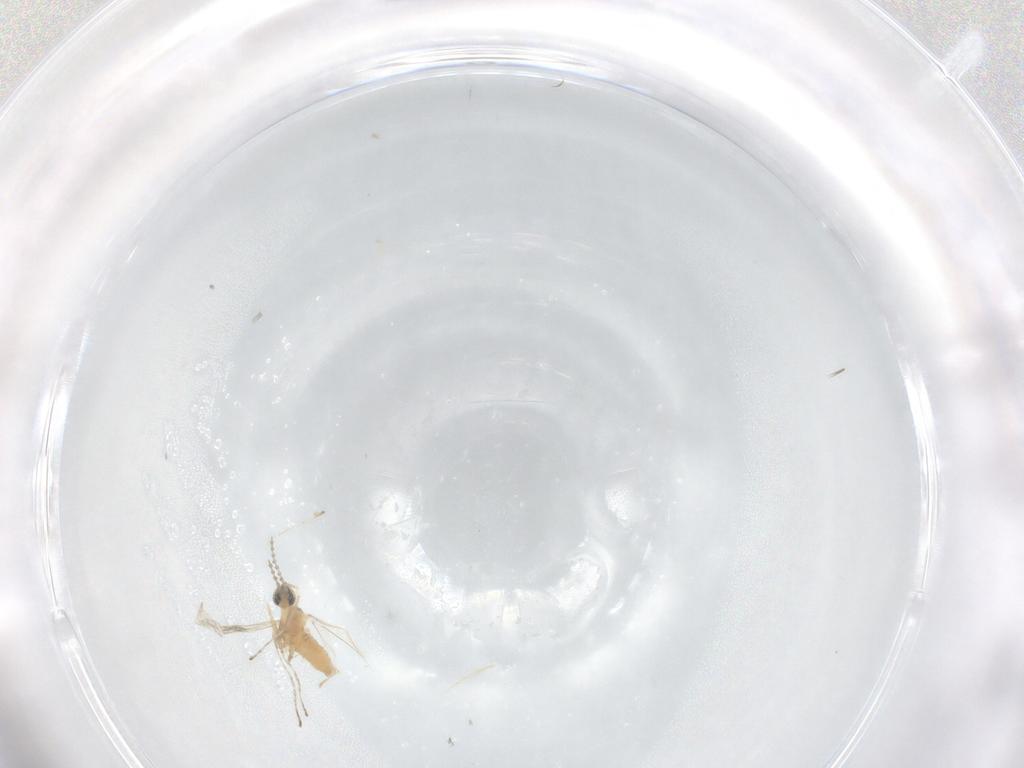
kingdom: Animalia
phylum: Arthropoda
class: Insecta
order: Diptera
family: Cecidomyiidae
